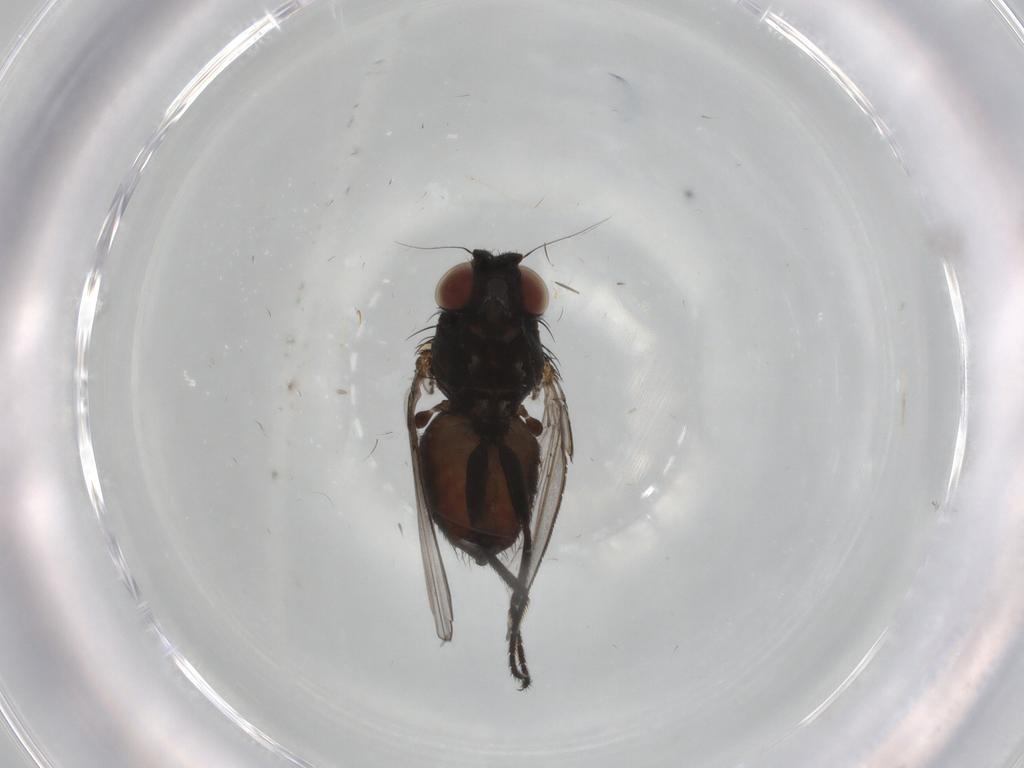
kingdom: Animalia
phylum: Arthropoda
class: Insecta
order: Diptera
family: Milichiidae
